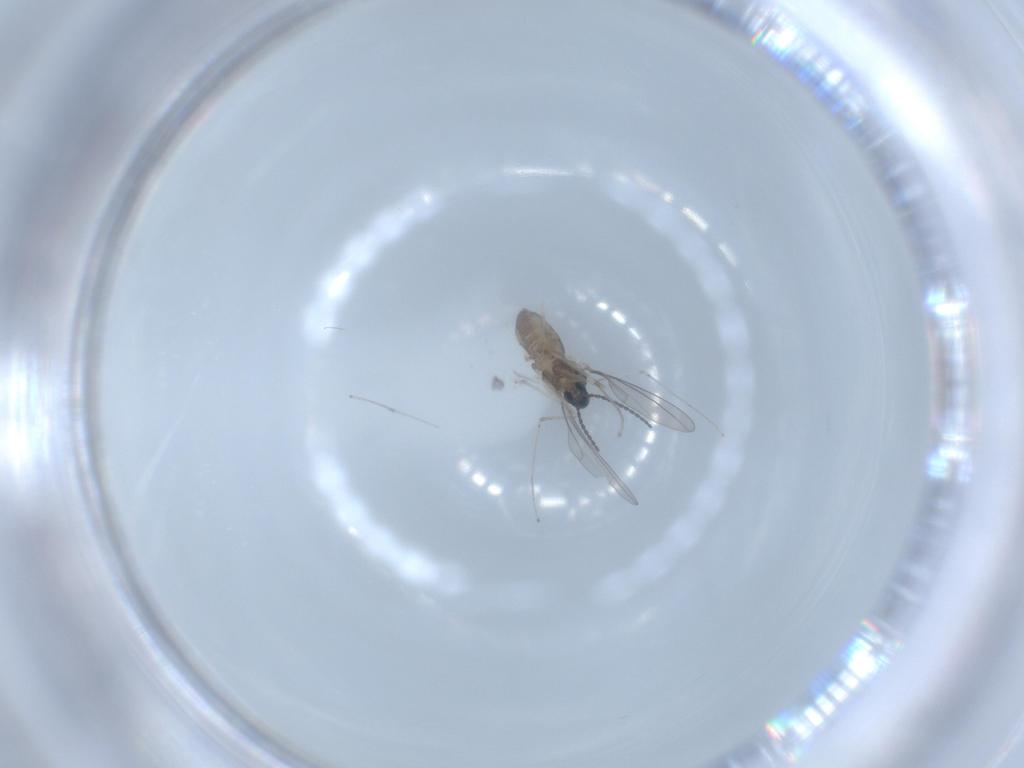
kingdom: Animalia
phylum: Arthropoda
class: Insecta
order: Diptera
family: Cecidomyiidae
